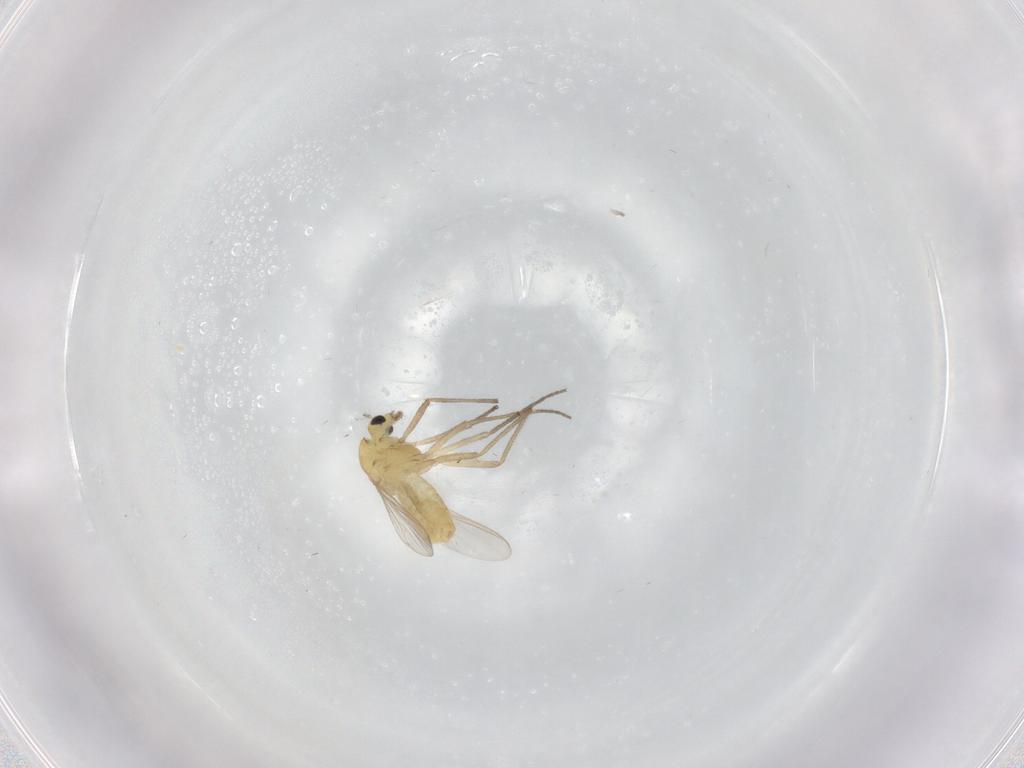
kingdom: Animalia
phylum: Arthropoda
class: Insecta
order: Diptera
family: Chironomidae
